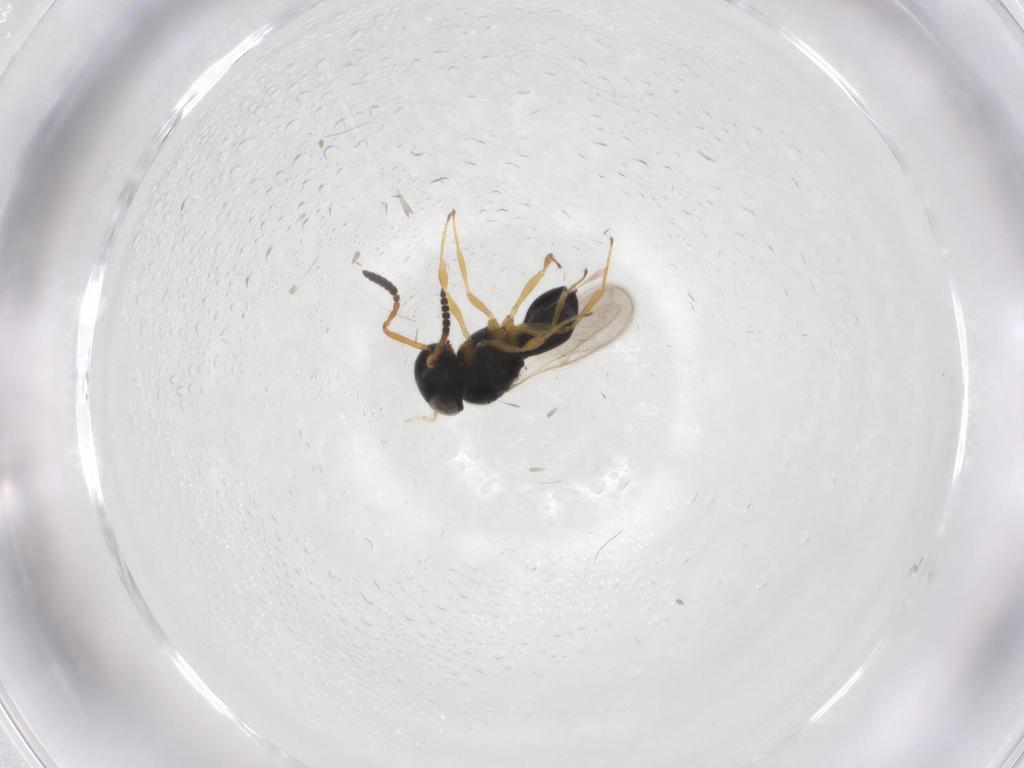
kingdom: Animalia
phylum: Arthropoda
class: Insecta
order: Hymenoptera
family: Scelionidae
